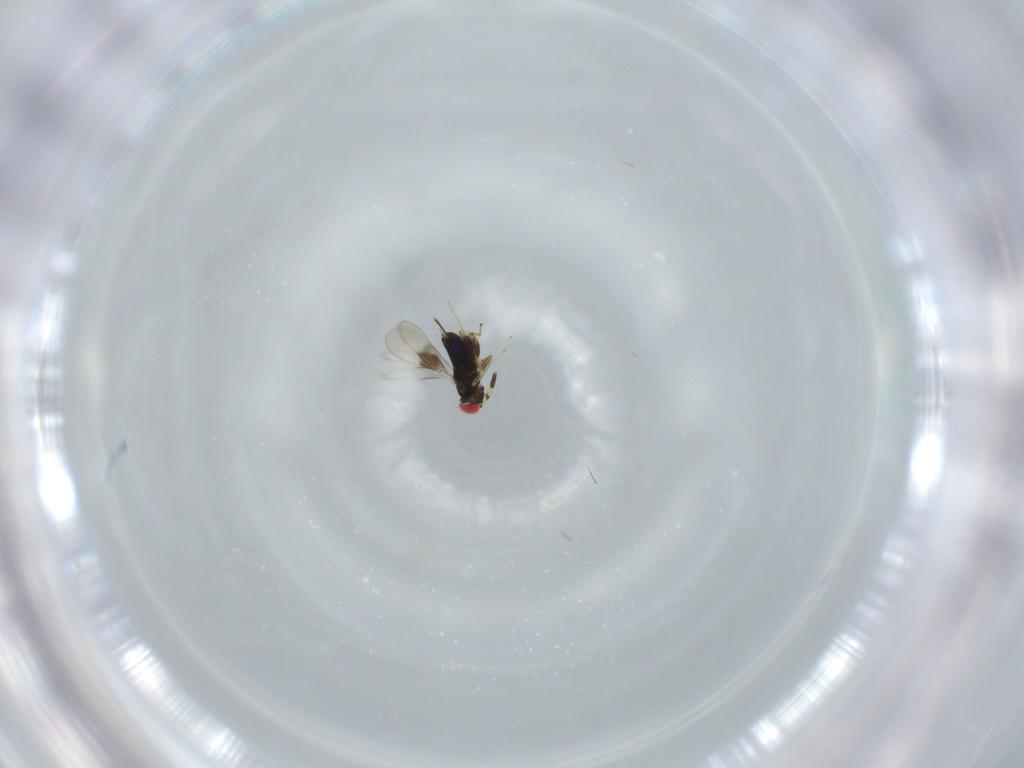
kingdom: Animalia
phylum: Arthropoda
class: Insecta
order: Hymenoptera
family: Azotidae
